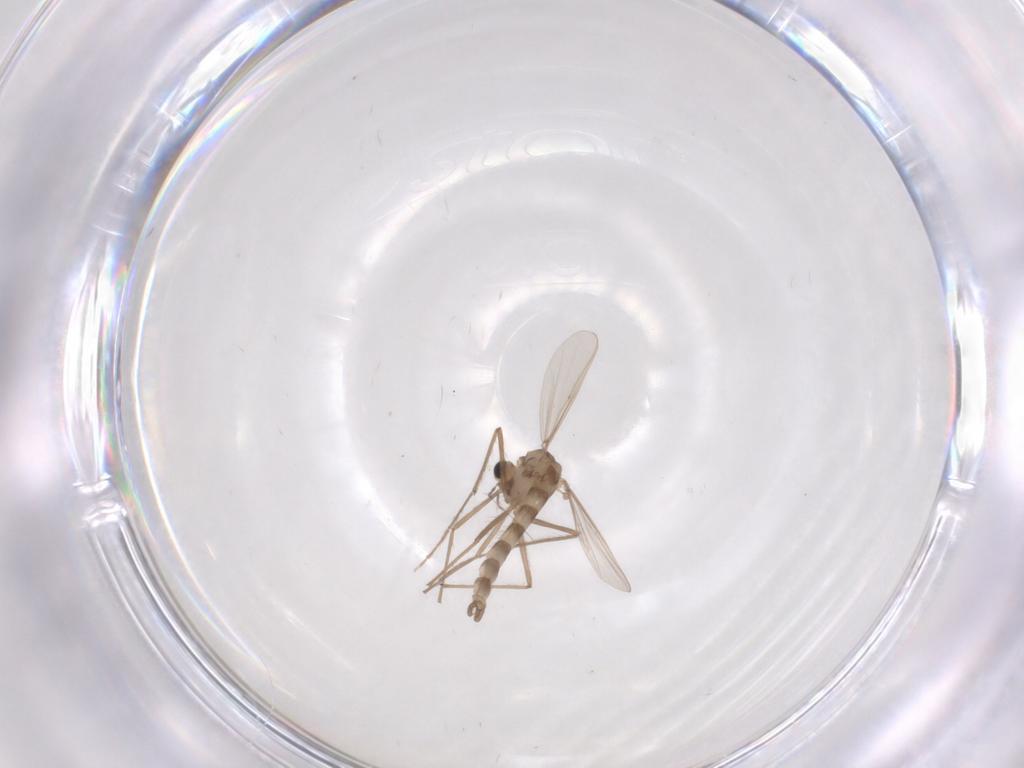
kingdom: Animalia
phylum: Arthropoda
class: Insecta
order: Diptera
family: Chironomidae
